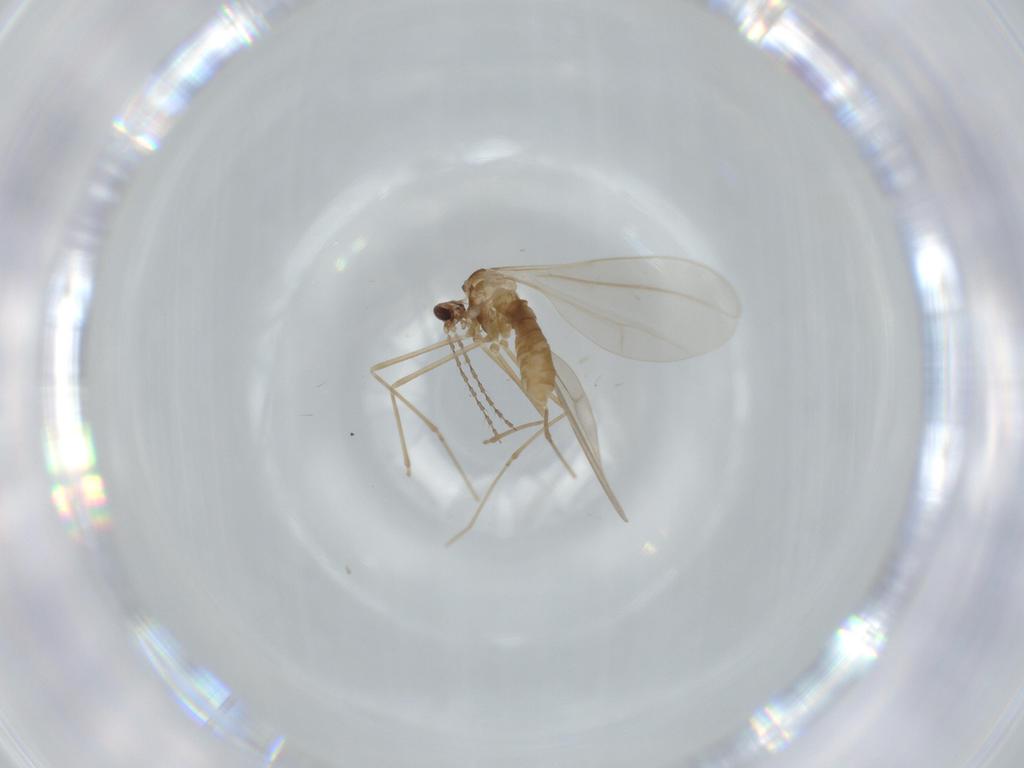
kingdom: Animalia
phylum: Arthropoda
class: Insecta
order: Diptera
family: Cecidomyiidae
